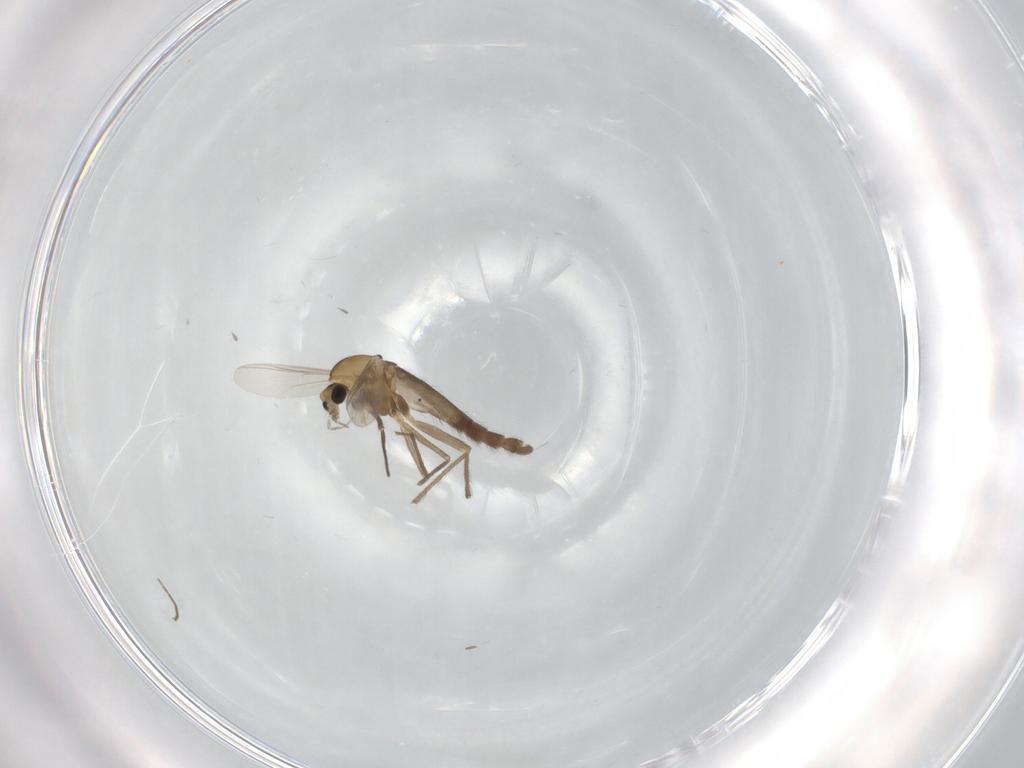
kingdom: Animalia
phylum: Arthropoda
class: Insecta
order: Diptera
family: Chironomidae
